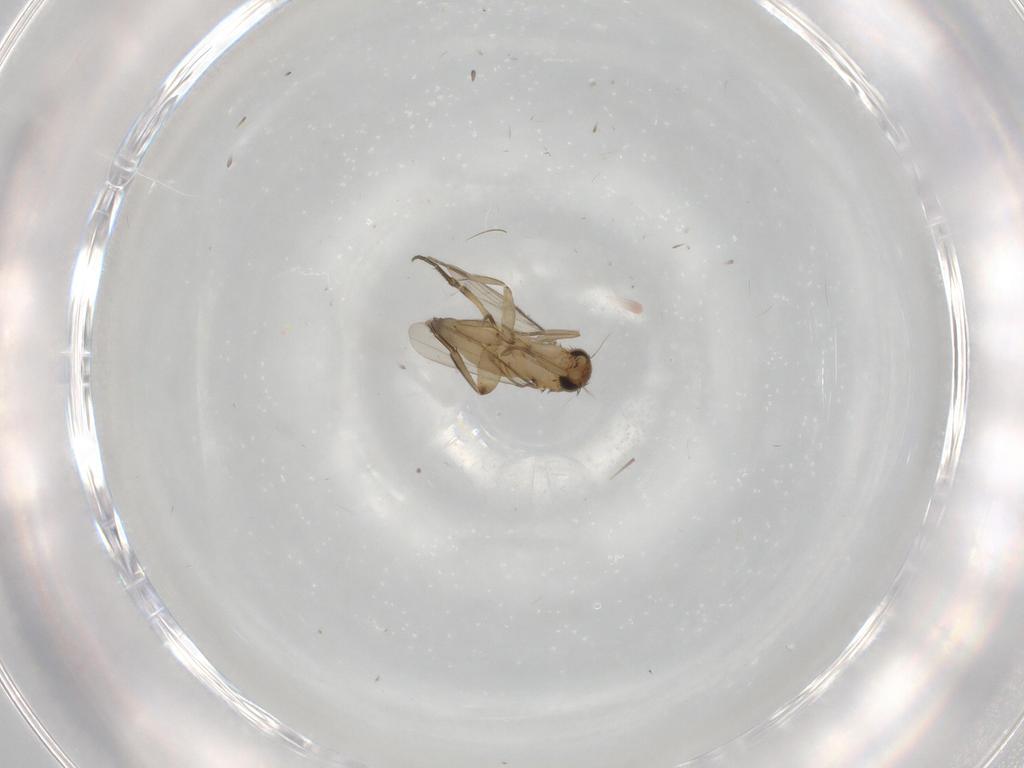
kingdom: Animalia
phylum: Arthropoda
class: Insecta
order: Diptera
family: Phoridae
